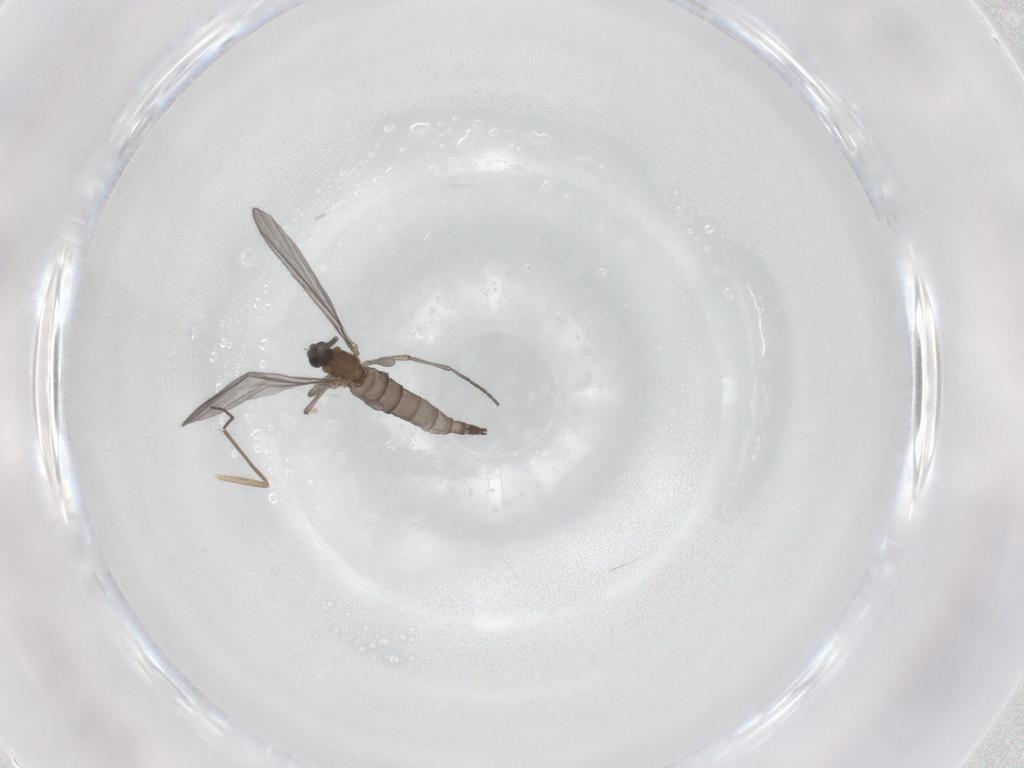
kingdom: Animalia
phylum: Arthropoda
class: Insecta
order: Diptera
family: Sciaridae
